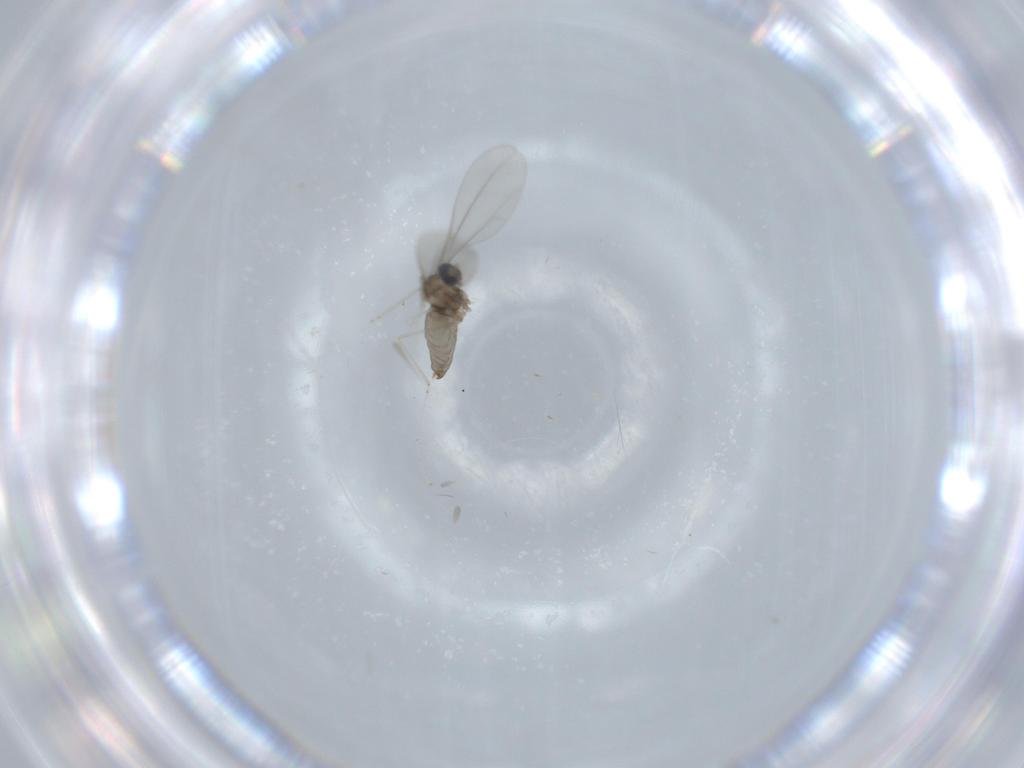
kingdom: Animalia
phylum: Arthropoda
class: Insecta
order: Diptera
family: Cecidomyiidae
